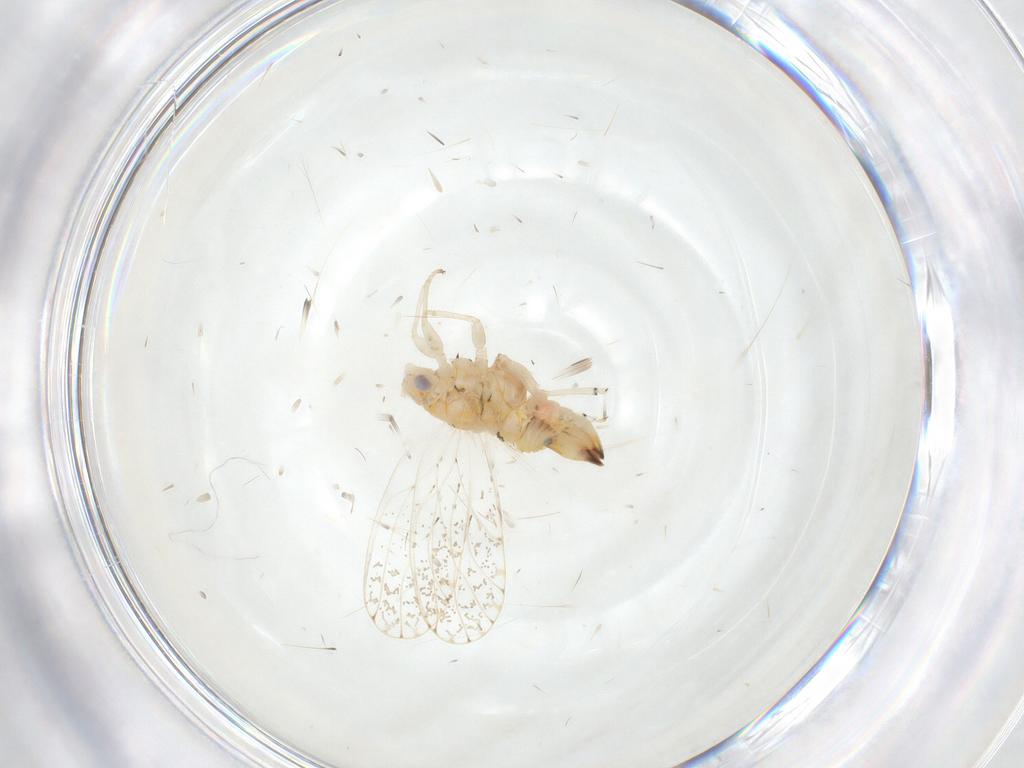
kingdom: Animalia
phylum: Arthropoda
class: Insecta
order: Hemiptera
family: Psyllidae
